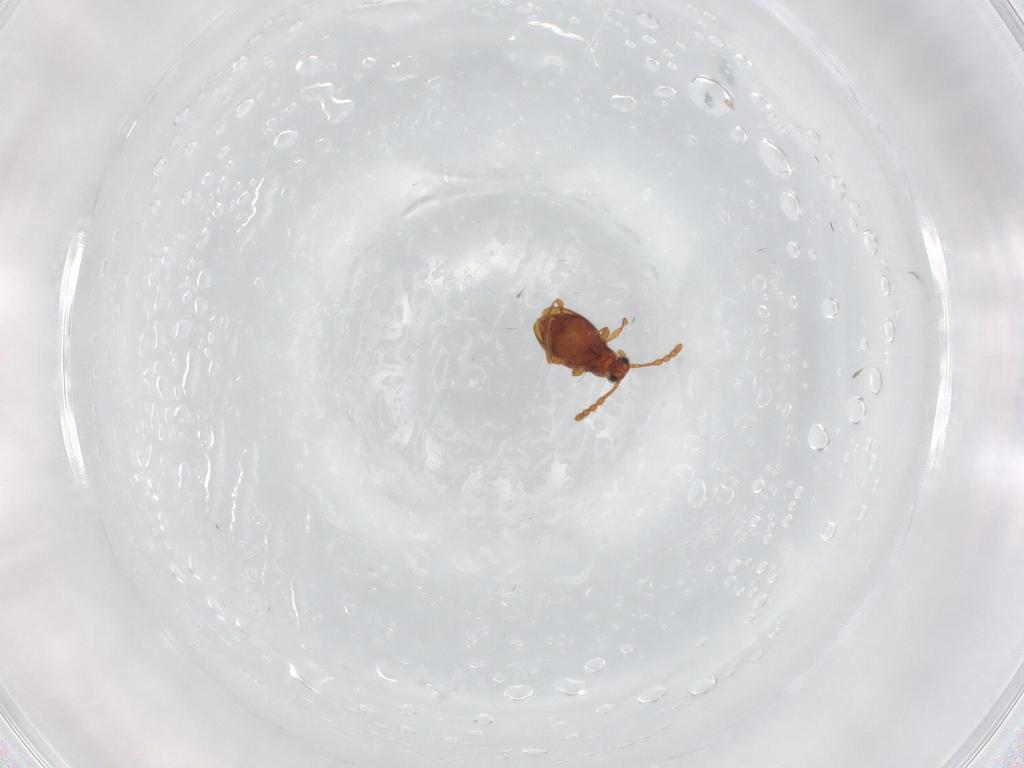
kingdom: Animalia
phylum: Arthropoda
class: Insecta
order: Coleoptera
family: Staphylinidae
